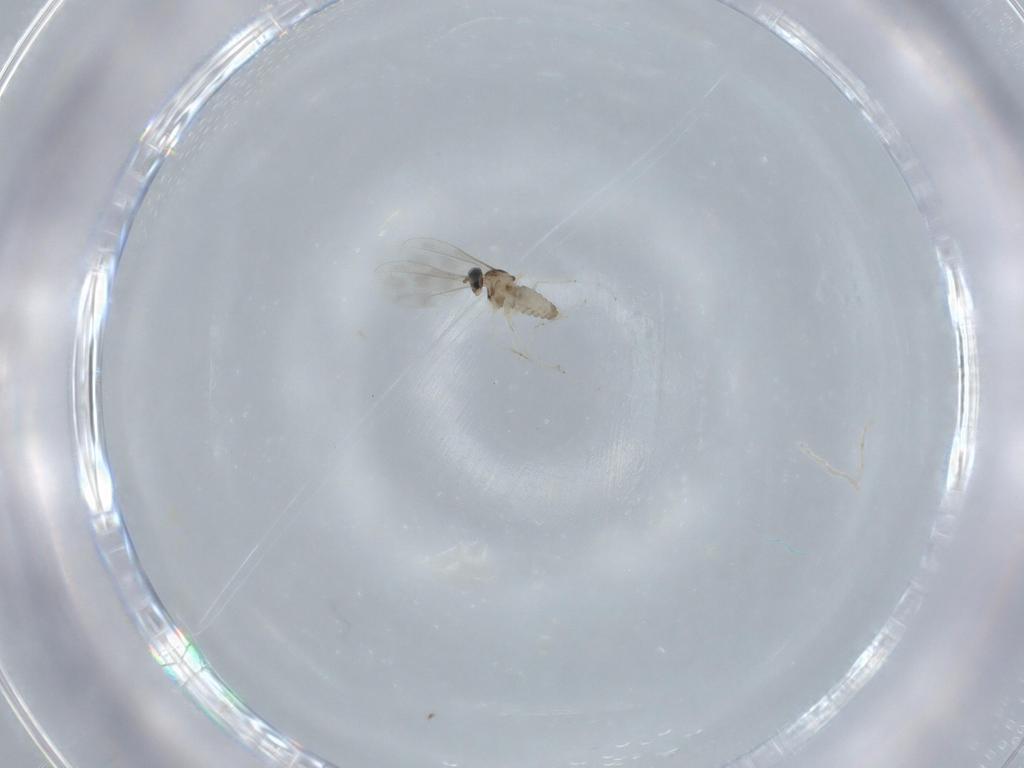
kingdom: Animalia
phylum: Arthropoda
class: Insecta
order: Diptera
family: Cecidomyiidae
